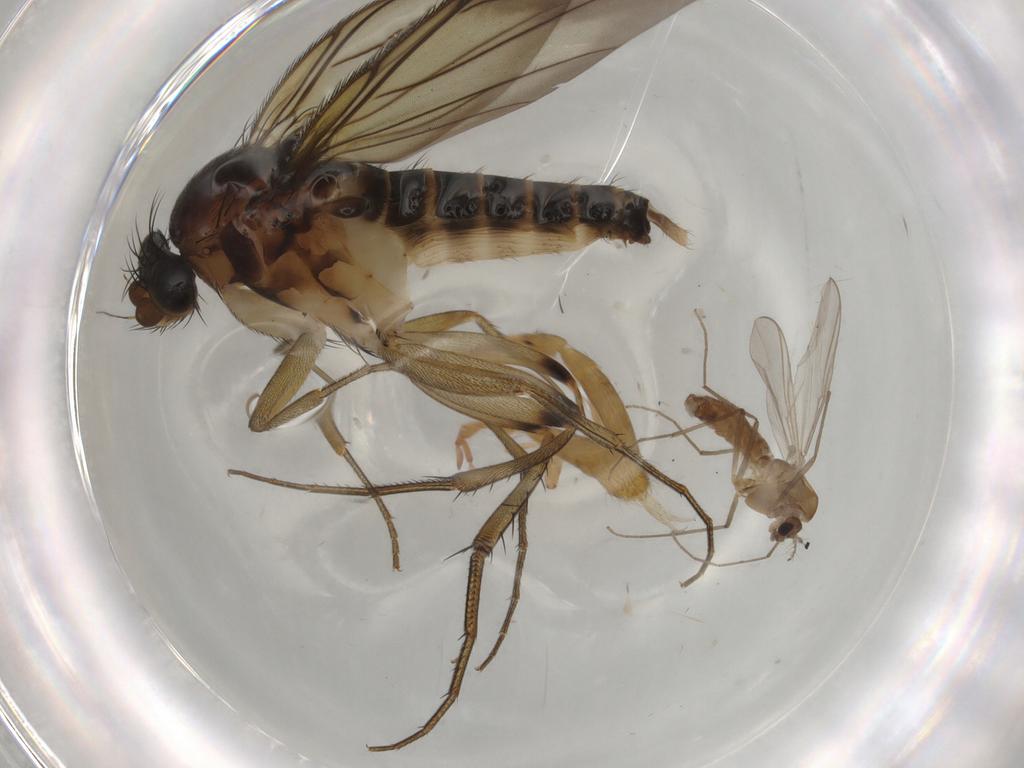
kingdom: Animalia
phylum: Arthropoda
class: Insecta
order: Diptera
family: Chironomidae
